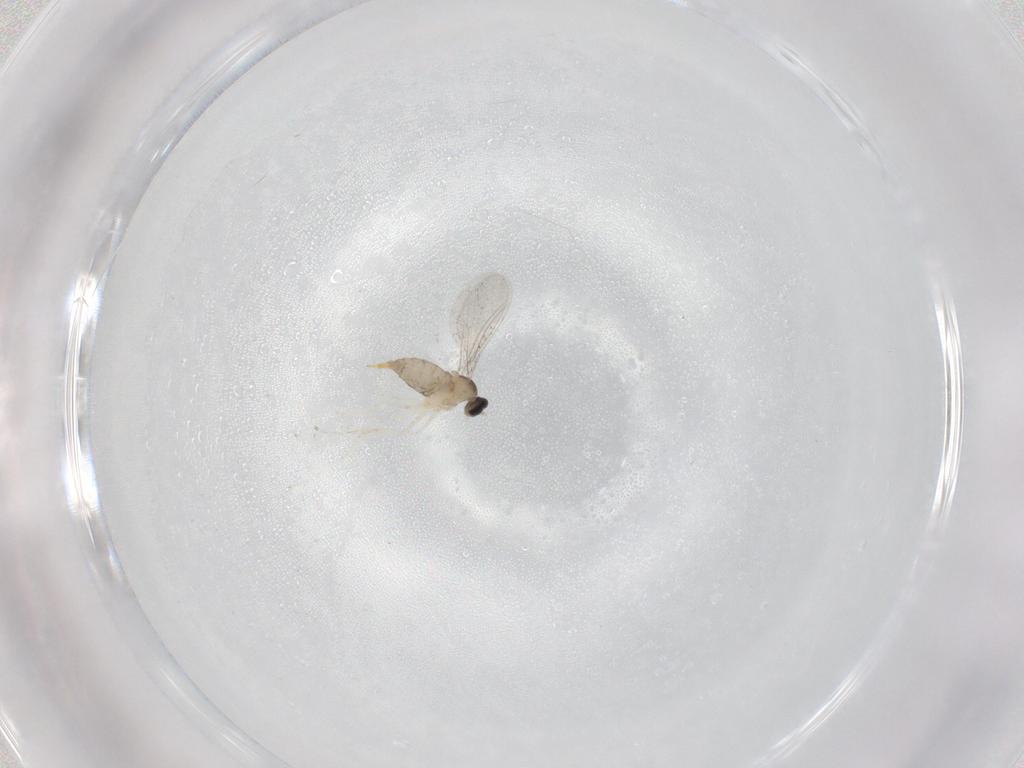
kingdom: Animalia
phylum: Arthropoda
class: Insecta
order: Diptera
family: Cecidomyiidae
